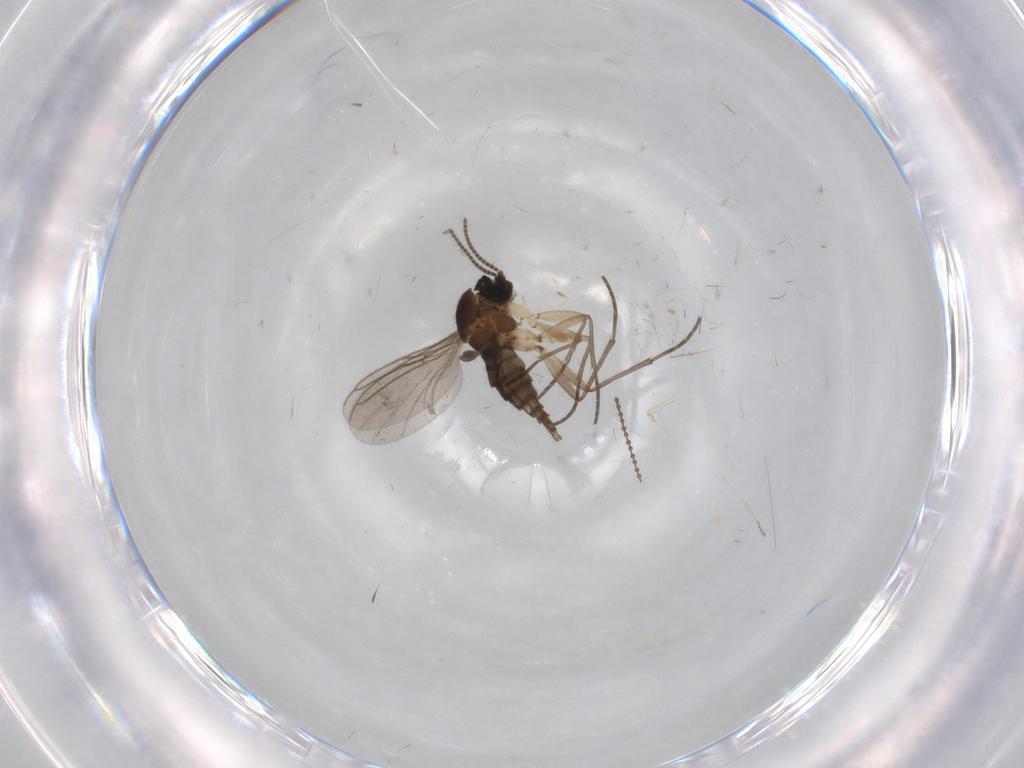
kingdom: Animalia
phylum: Arthropoda
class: Insecta
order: Diptera
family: Sciaridae
